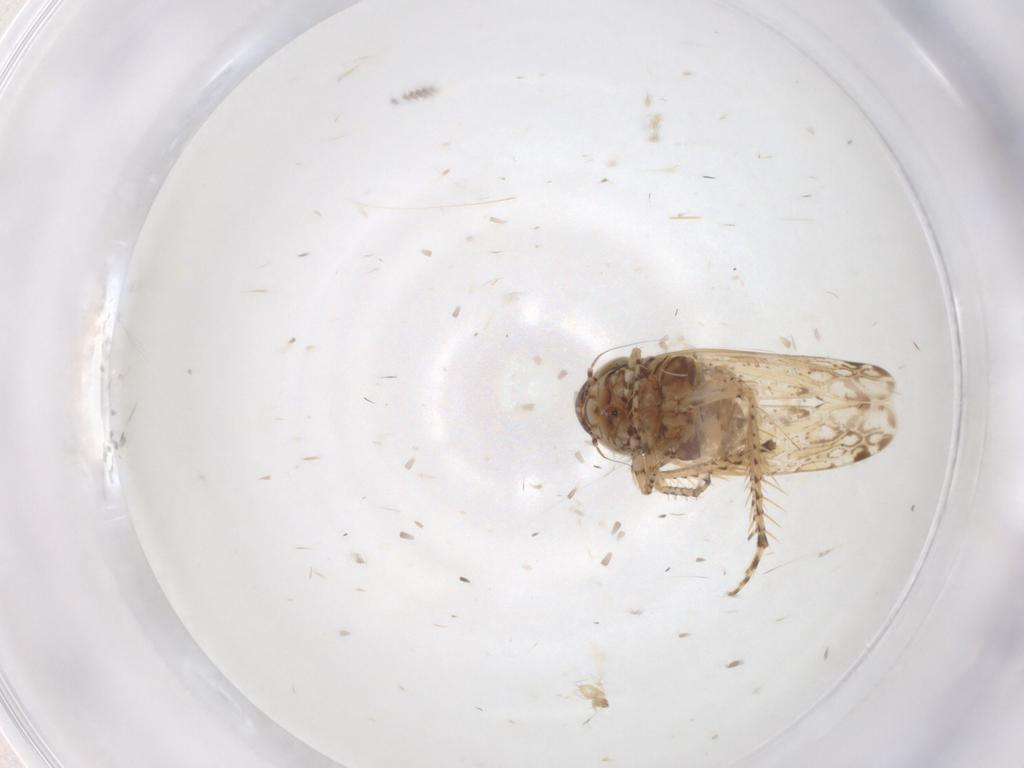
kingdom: Animalia
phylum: Arthropoda
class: Insecta
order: Hemiptera
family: Cicadellidae
